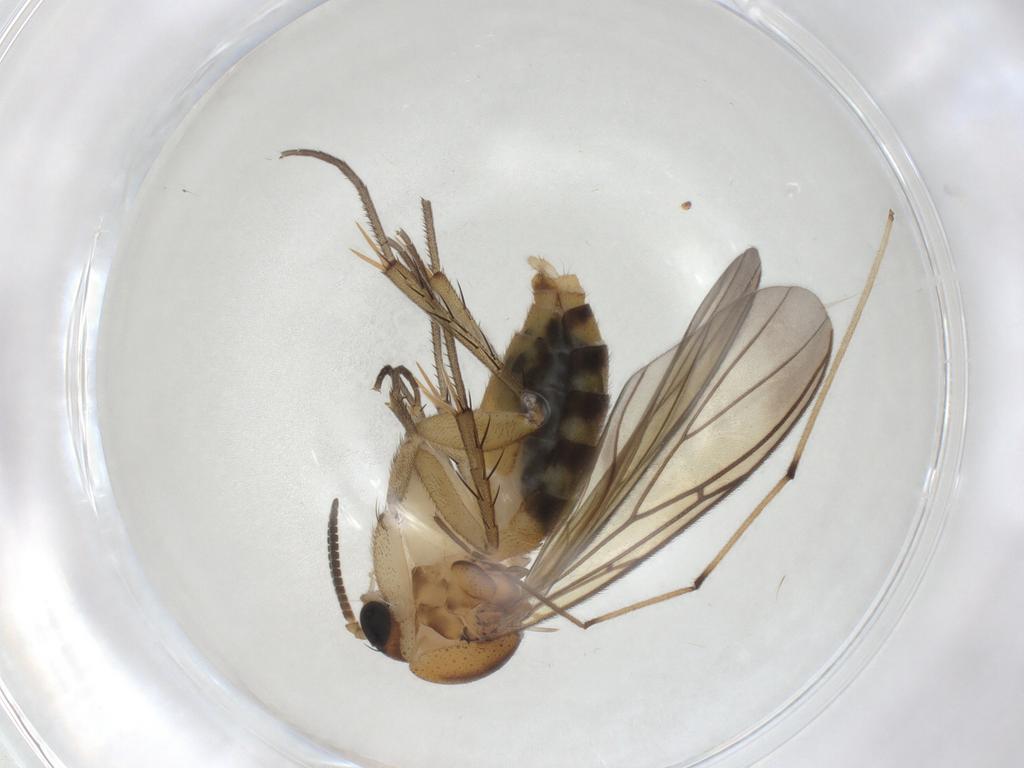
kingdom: Animalia
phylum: Arthropoda
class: Insecta
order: Diptera
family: Mycetophilidae
